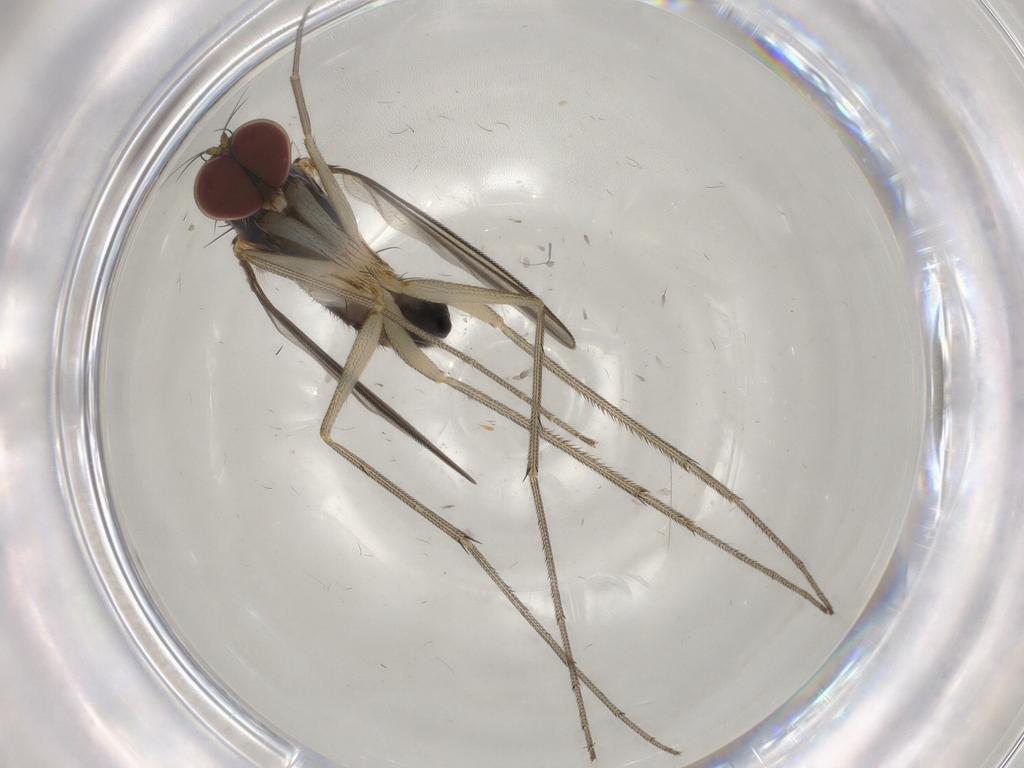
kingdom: Animalia
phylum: Arthropoda
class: Insecta
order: Diptera
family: Dolichopodidae
